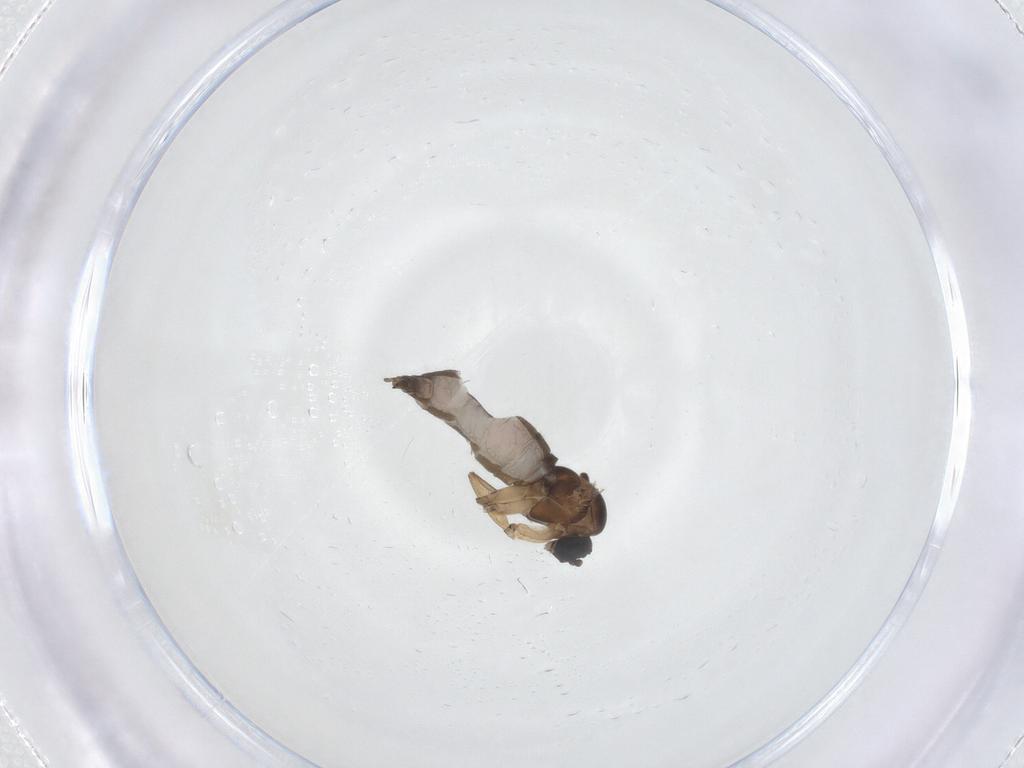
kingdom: Animalia
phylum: Arthropoda
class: Insecta
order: Diptera
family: Sciaridae
